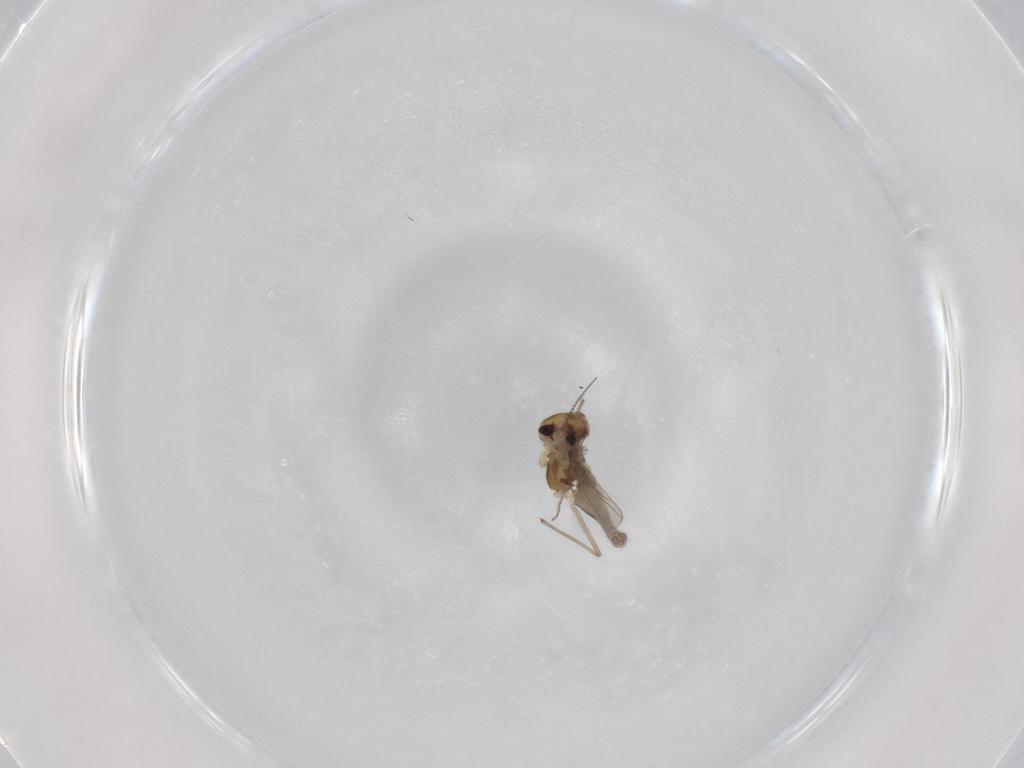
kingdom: Animalia
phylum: Arthropoda
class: Insecta
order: Diptera
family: Chironomidae
